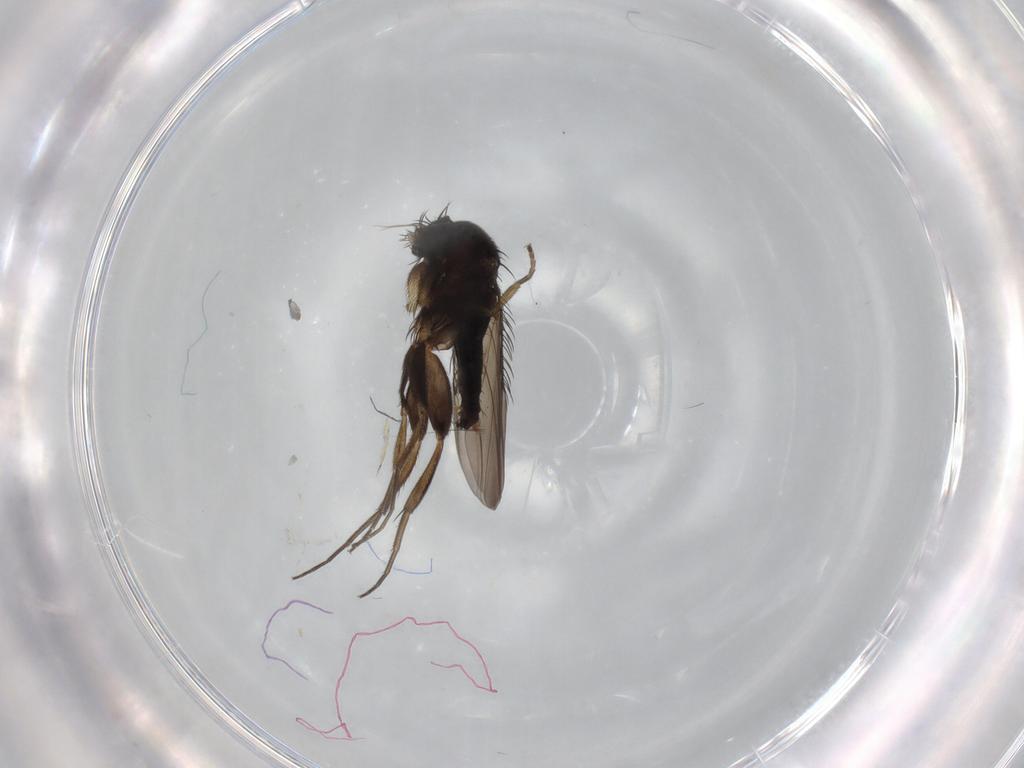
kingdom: Animalia
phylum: Arthropoda
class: Insecta
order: Diptera
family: Phoridae
